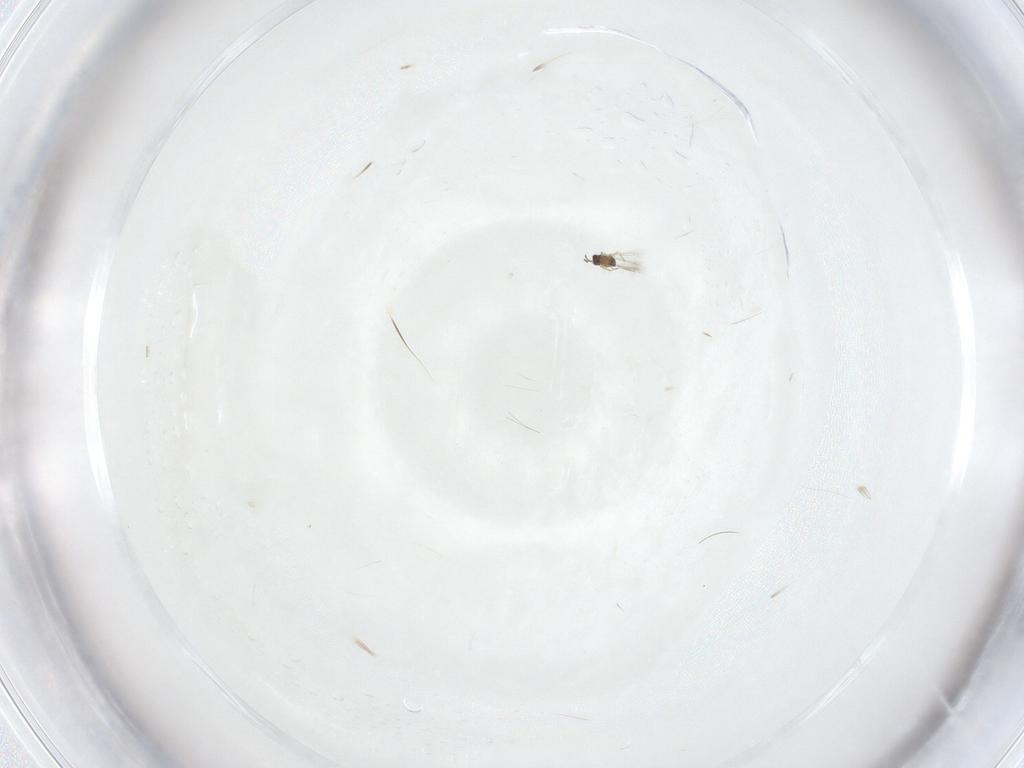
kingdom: Animalia
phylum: Arthropoda
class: Insecta
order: Hymenoptera
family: Mymaridae
